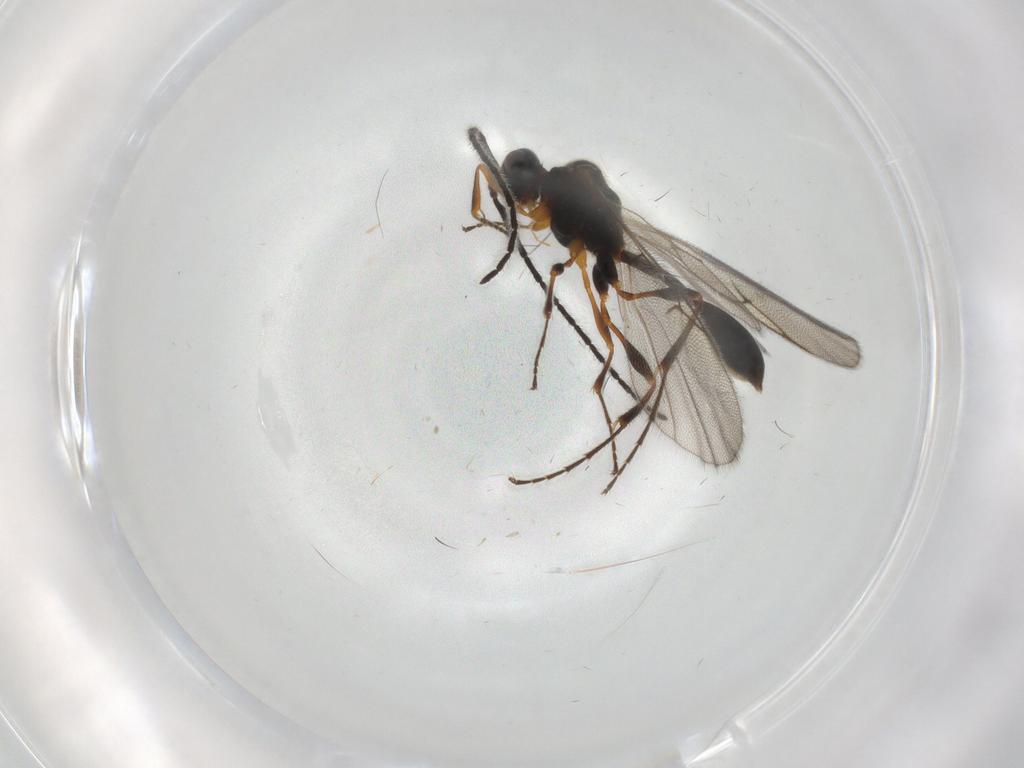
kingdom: Animalia
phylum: Arthropoda
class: Insecta
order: Hymenoptera
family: Diapriidae
